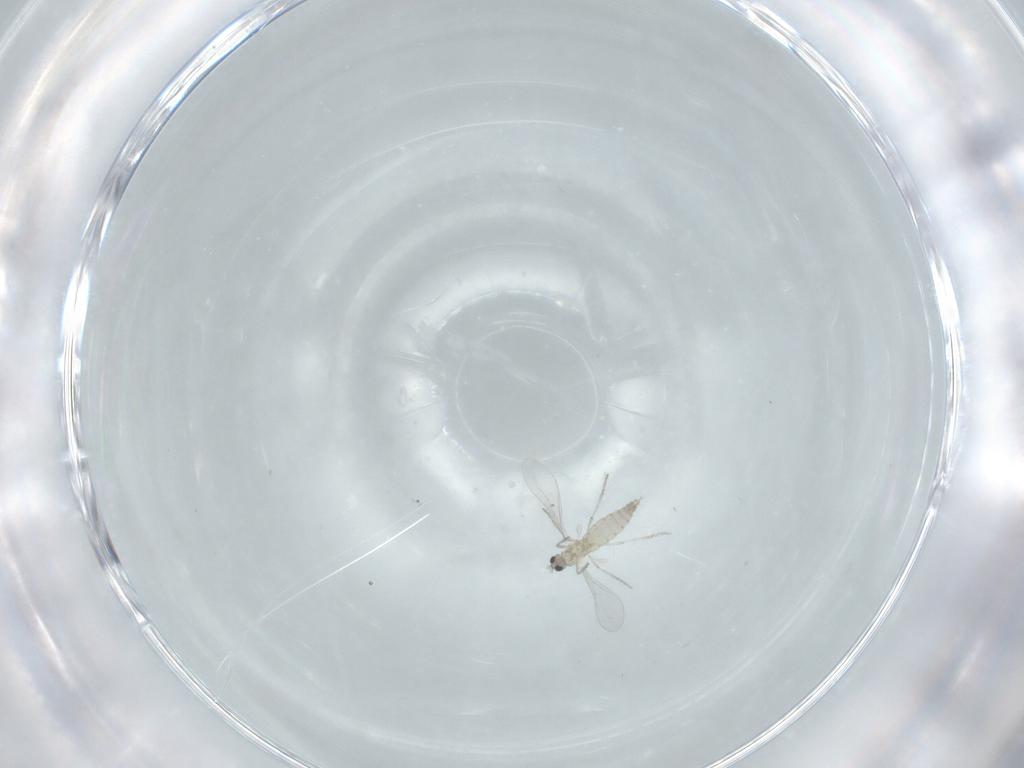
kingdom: Animalia
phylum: Arthropoda
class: Insecta
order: Diptera
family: Cecidomyiidae
